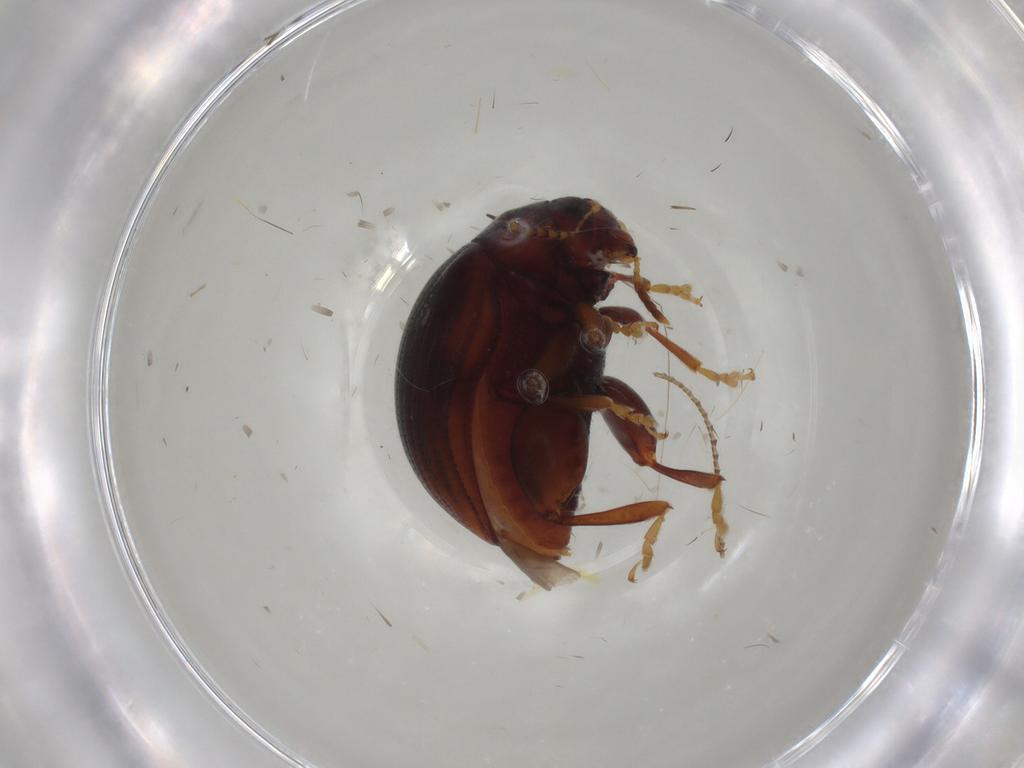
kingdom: Animalia
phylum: Arthropoda
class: Insecta
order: Coleoptera
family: Chrysomelidae
